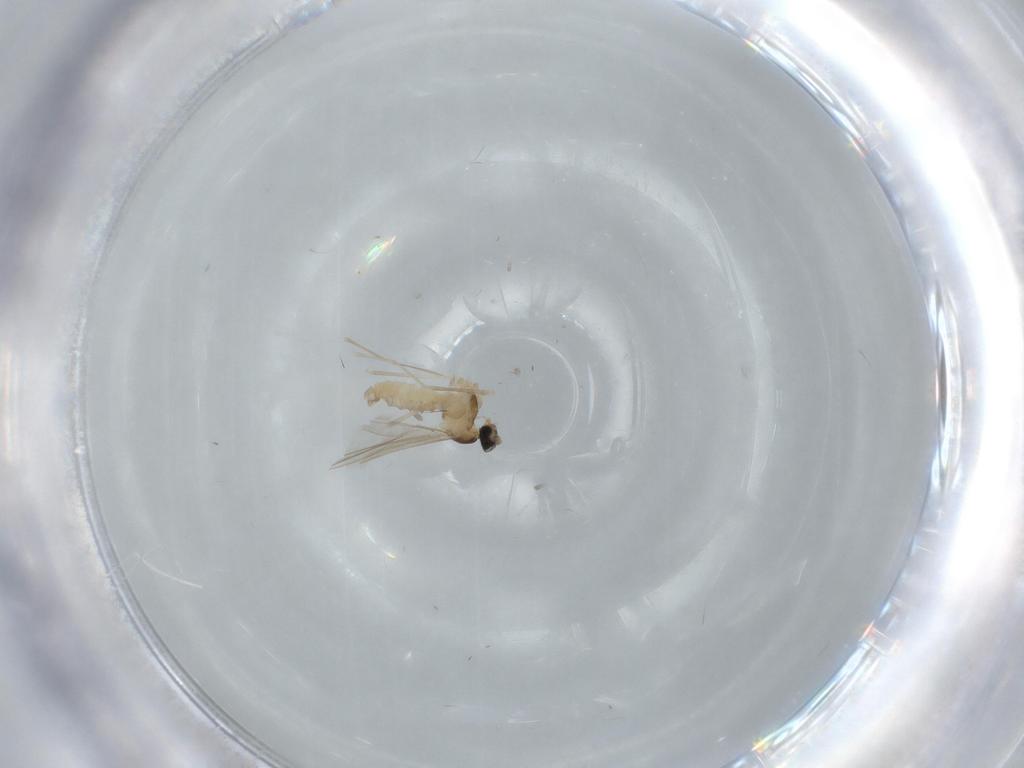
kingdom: Animalia
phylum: Arthropoda
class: Insecta
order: Diptera
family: Cecidomyiidae
